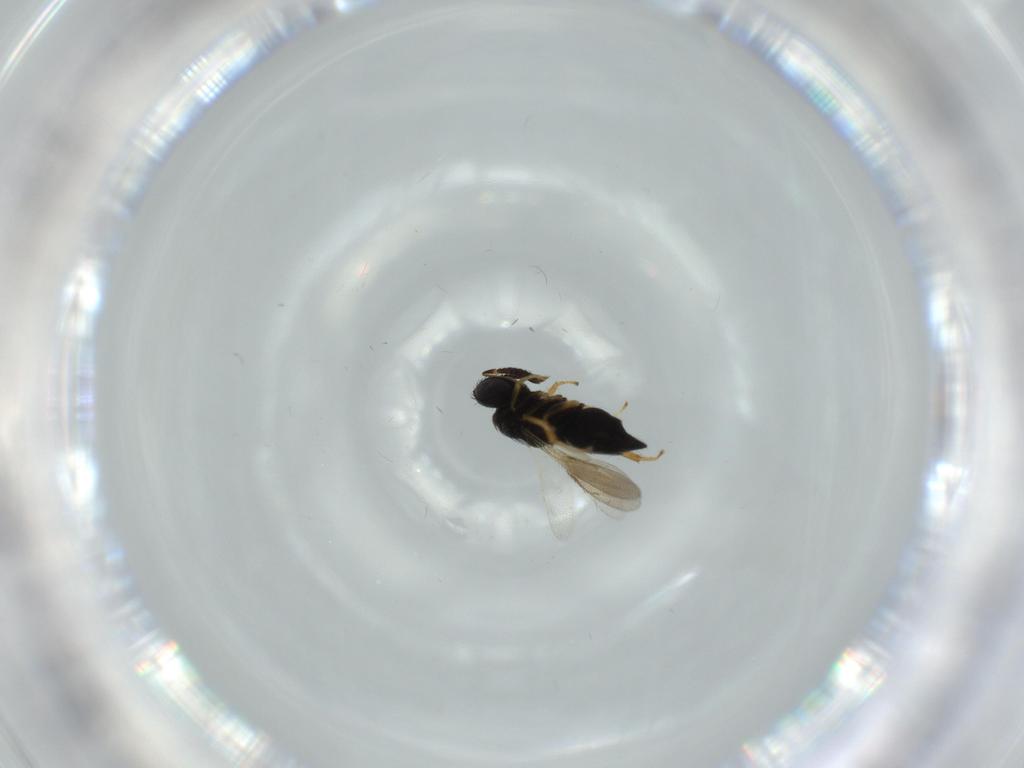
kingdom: Animalia
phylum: Arthropoda
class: Insecta
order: Hymenoptera
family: Pteromalidae
